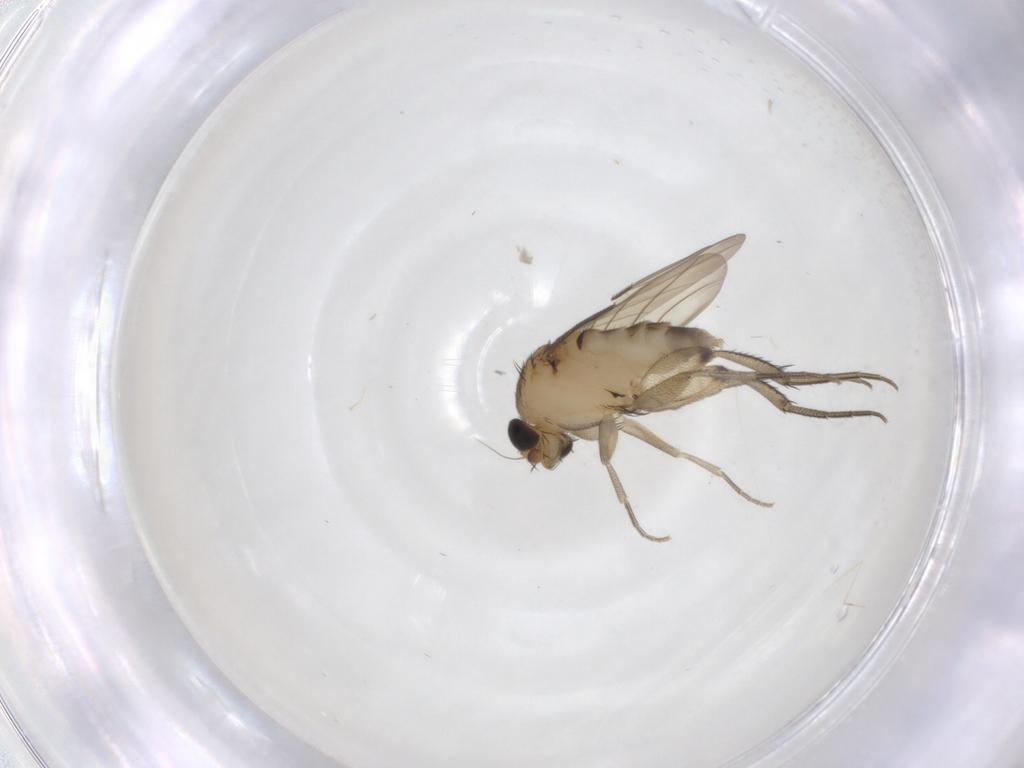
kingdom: Animalia
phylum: Arthropoda
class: Insecta
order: Diptera
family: Phoridae
